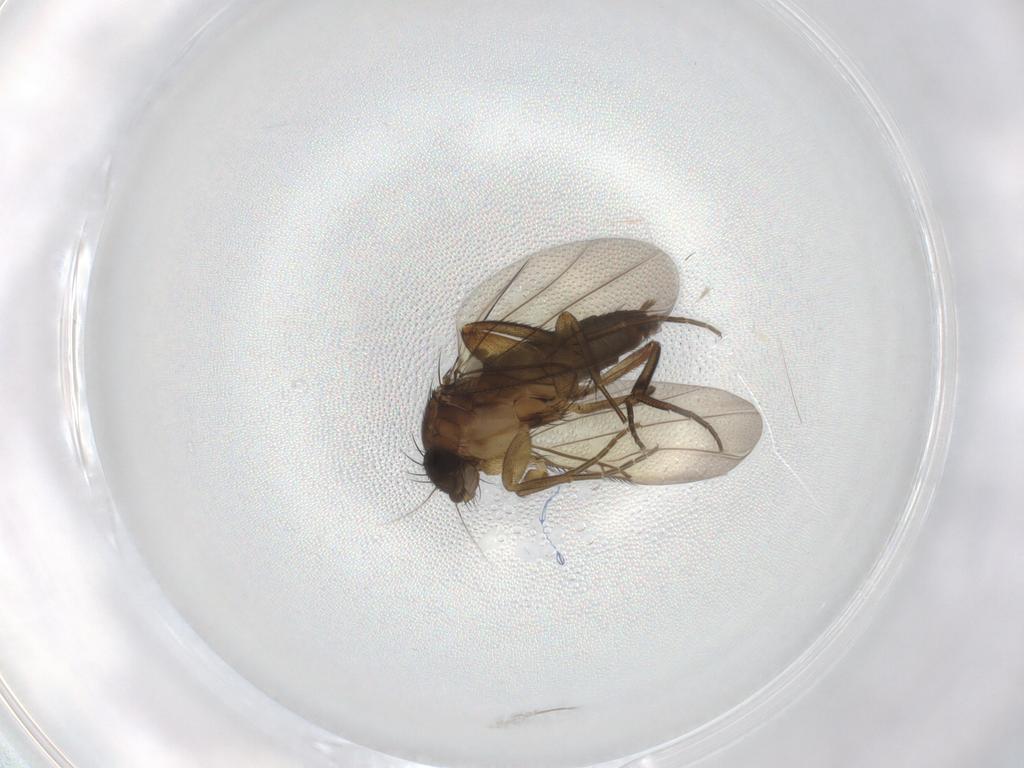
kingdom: Animalia
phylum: Arthropoda
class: Insecta
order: Diptera
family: Phoridae
